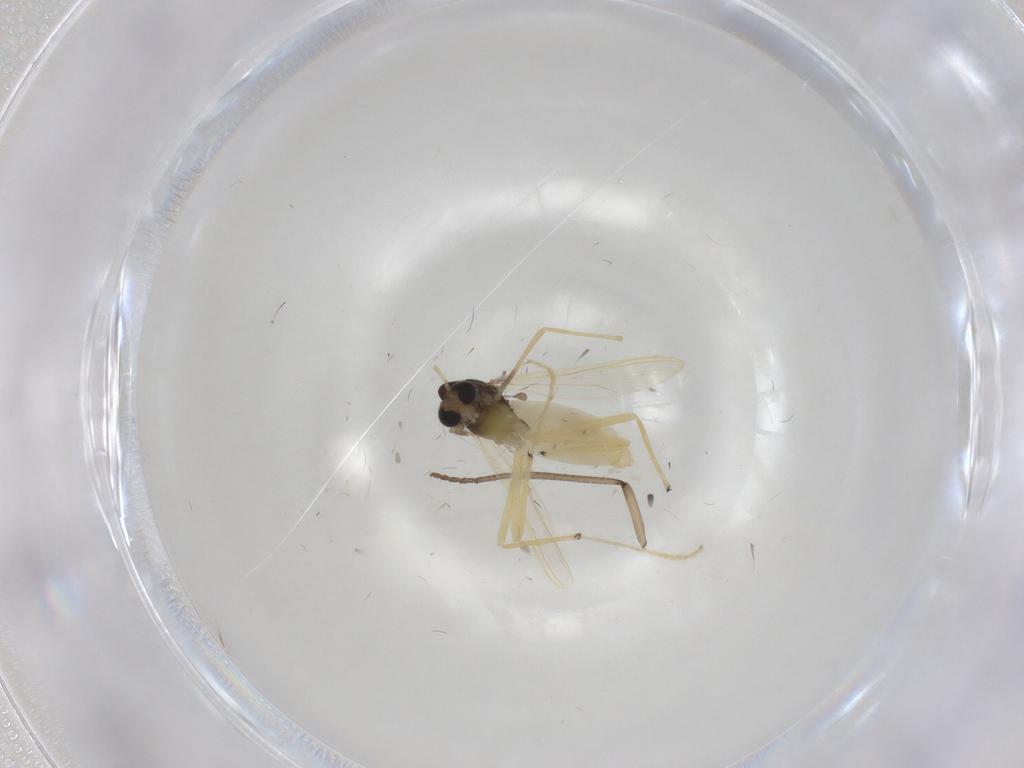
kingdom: Animalia
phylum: Arthropoda
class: Insecta
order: Diptera
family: Chironomidae
